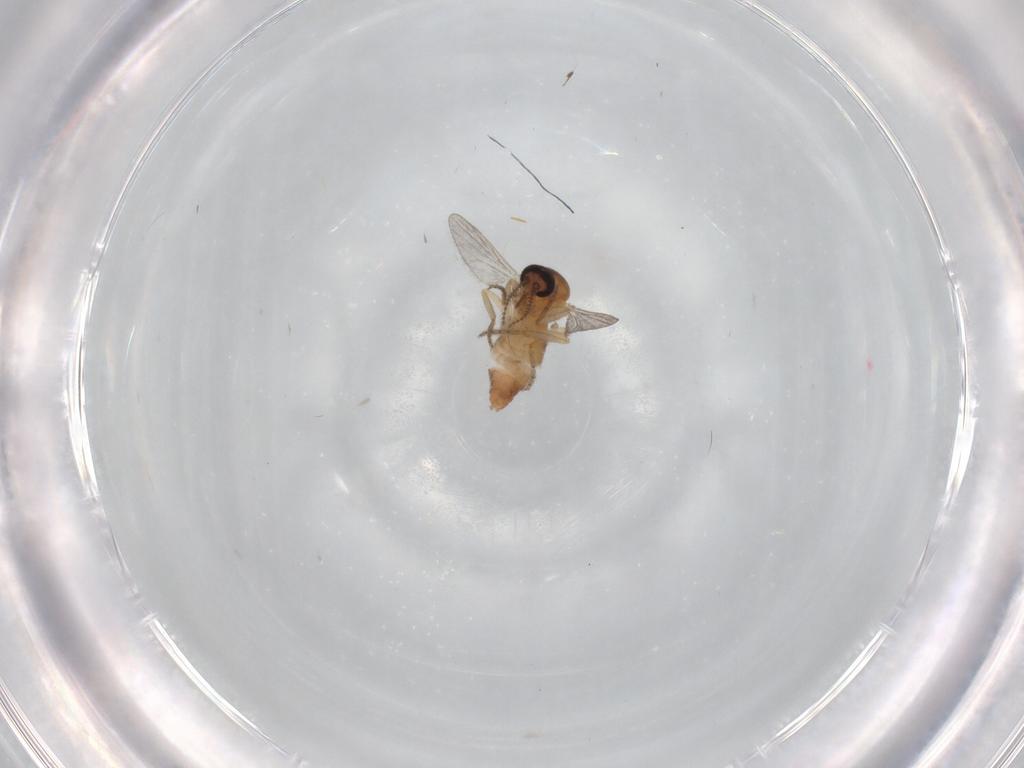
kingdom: Animalia
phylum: Arthropoda
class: Insecta
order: Diptera
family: Ceratopogonidae
